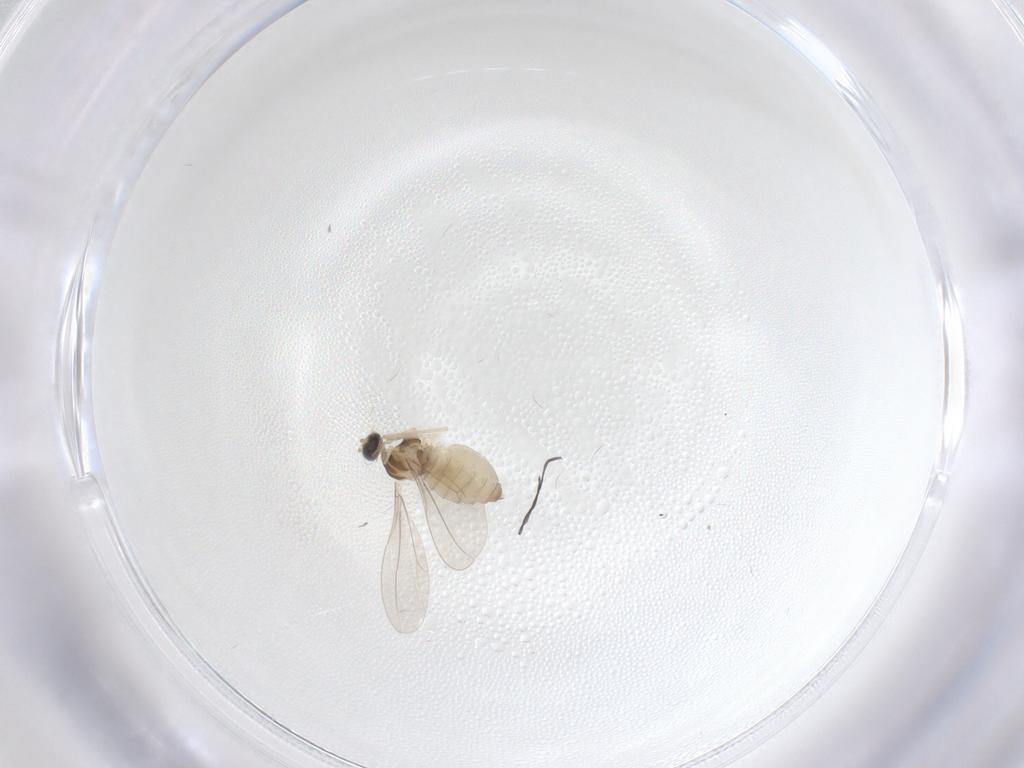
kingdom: Animalia
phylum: Arthropoda
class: Insecta
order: Diptera
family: Cecidomyiidae
